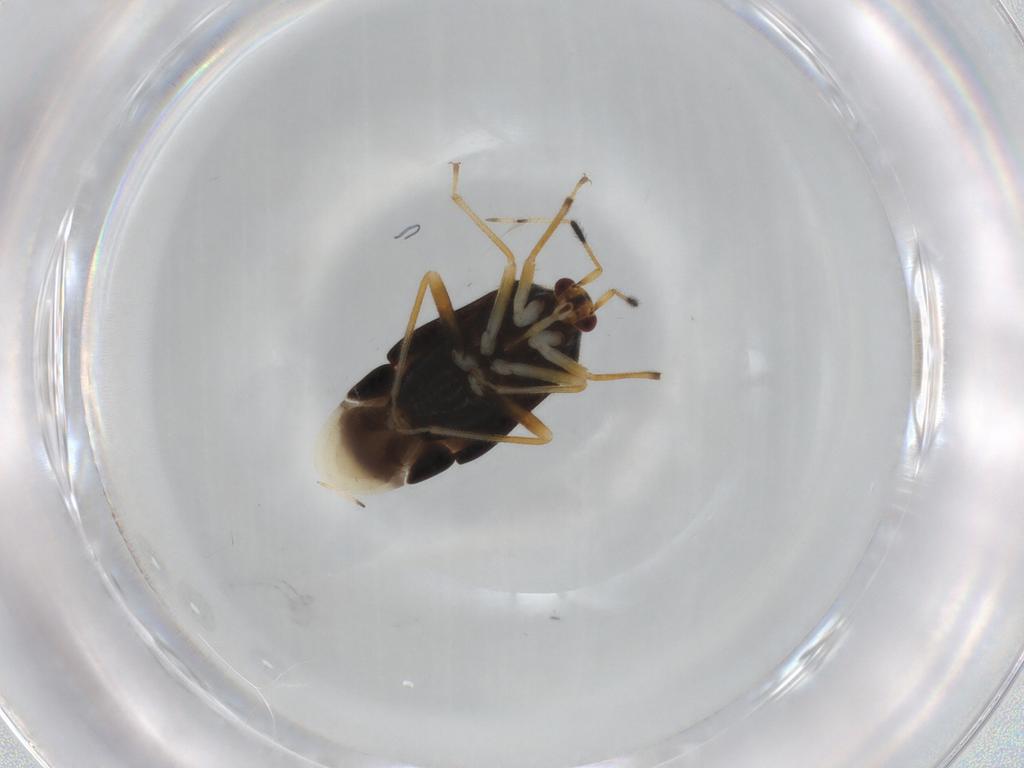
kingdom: Animalia
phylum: Arthropoda
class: Insecta
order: Hemiptera
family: Miridae
